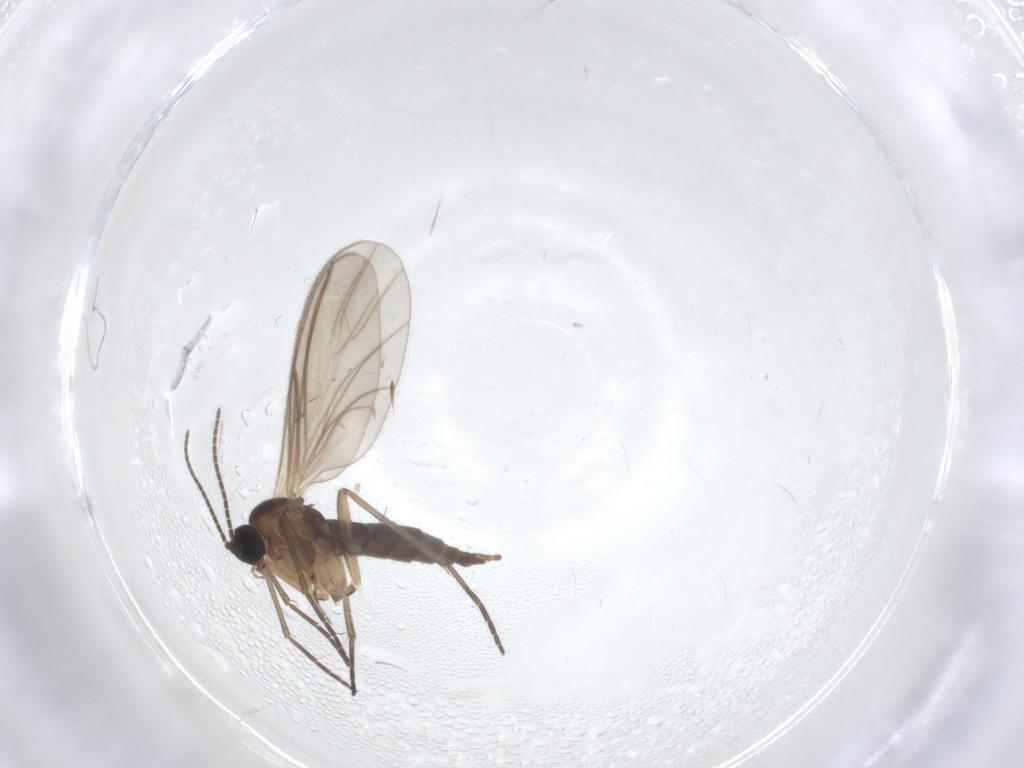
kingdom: Animalia
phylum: Arthropoda
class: Insecta
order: Diptera
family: Sciaridae
